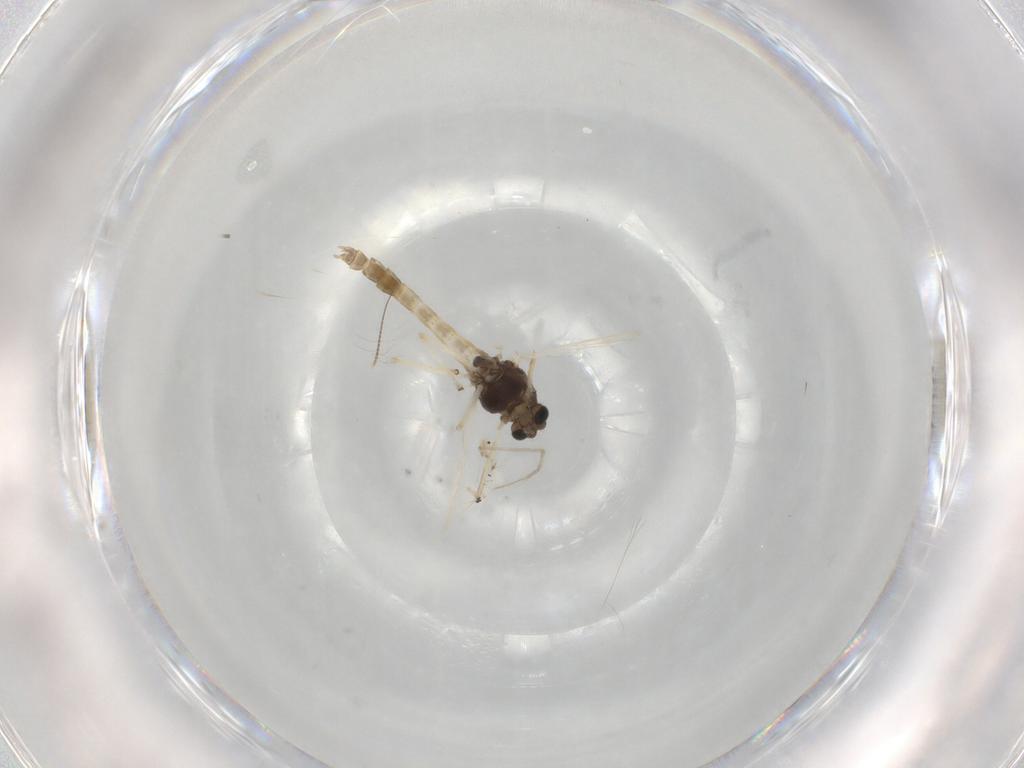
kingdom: Animalia
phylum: Arthropoda
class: Insecta
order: Diptera
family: Chironomidae
